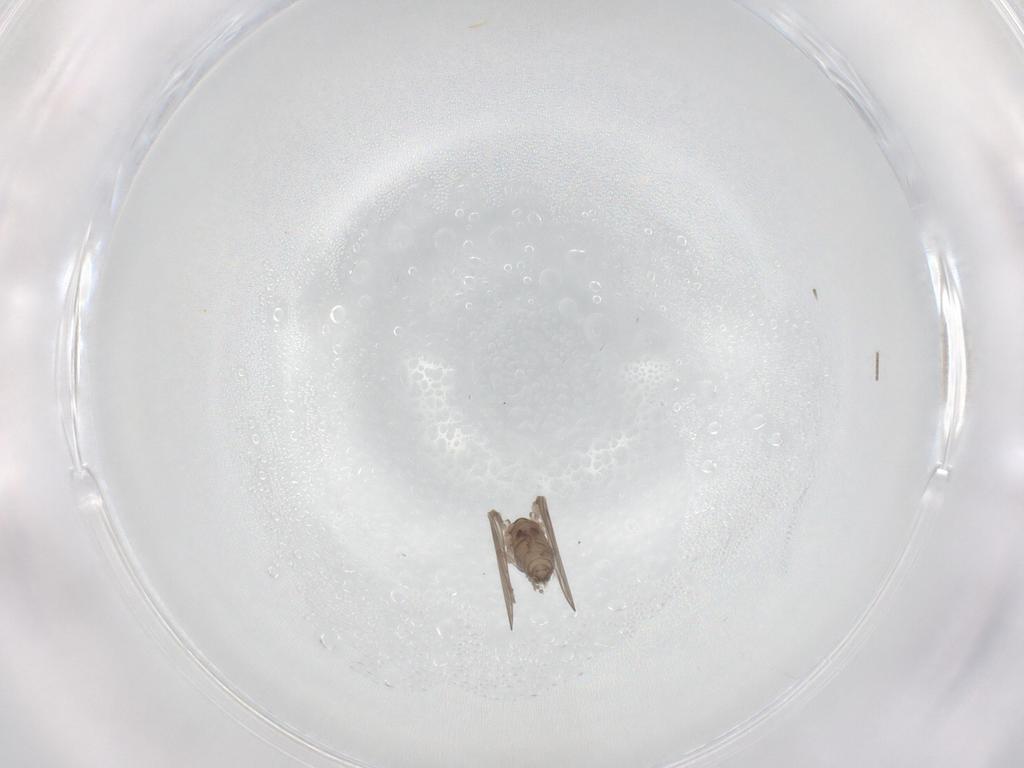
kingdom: Animalia
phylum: Arthropoda
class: Insecta
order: Diptera
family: Psychodidae
